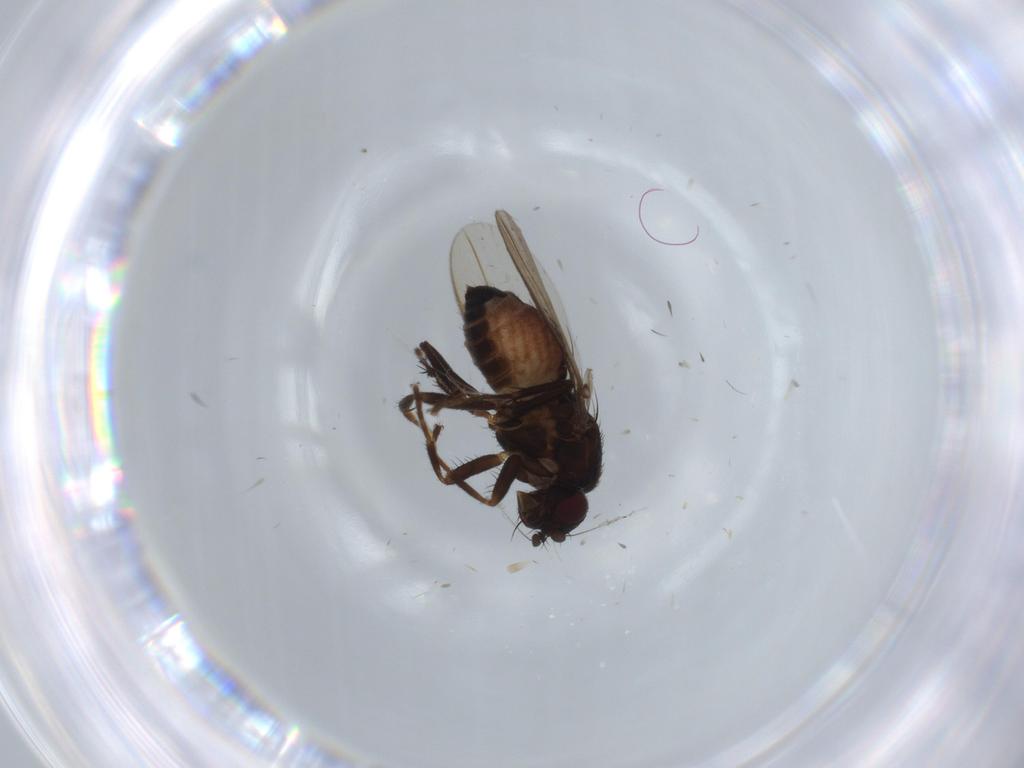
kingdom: Animalia
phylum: Arthropoda
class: Insecta
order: Diptera
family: Sphaeroceridae
